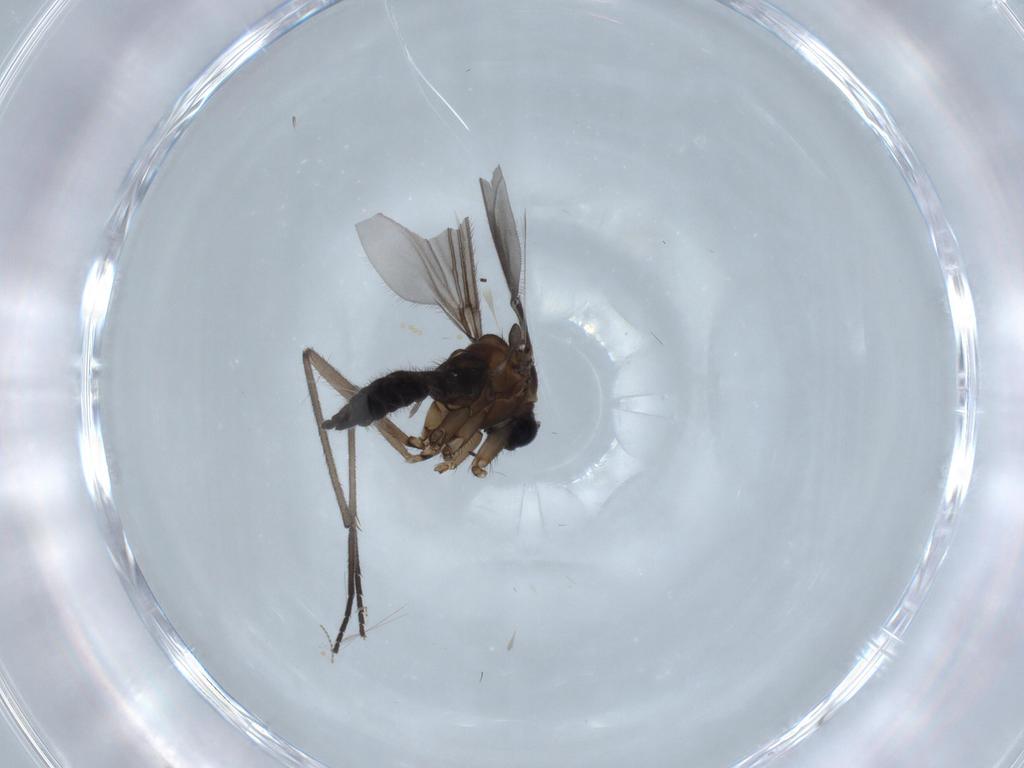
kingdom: Animalia
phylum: Arthropoda
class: Insecta
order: Diptera
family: Sciaridae
